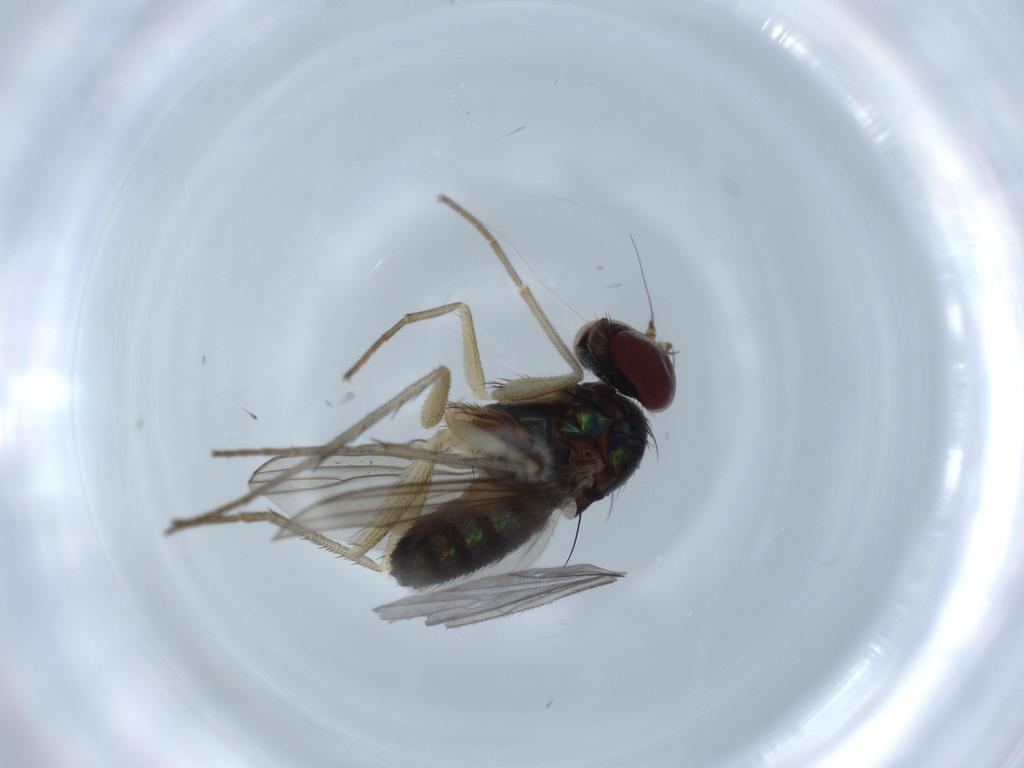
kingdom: Animalia
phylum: Arthropoda
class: Insecta
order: Diptera
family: Dolichopodidae
